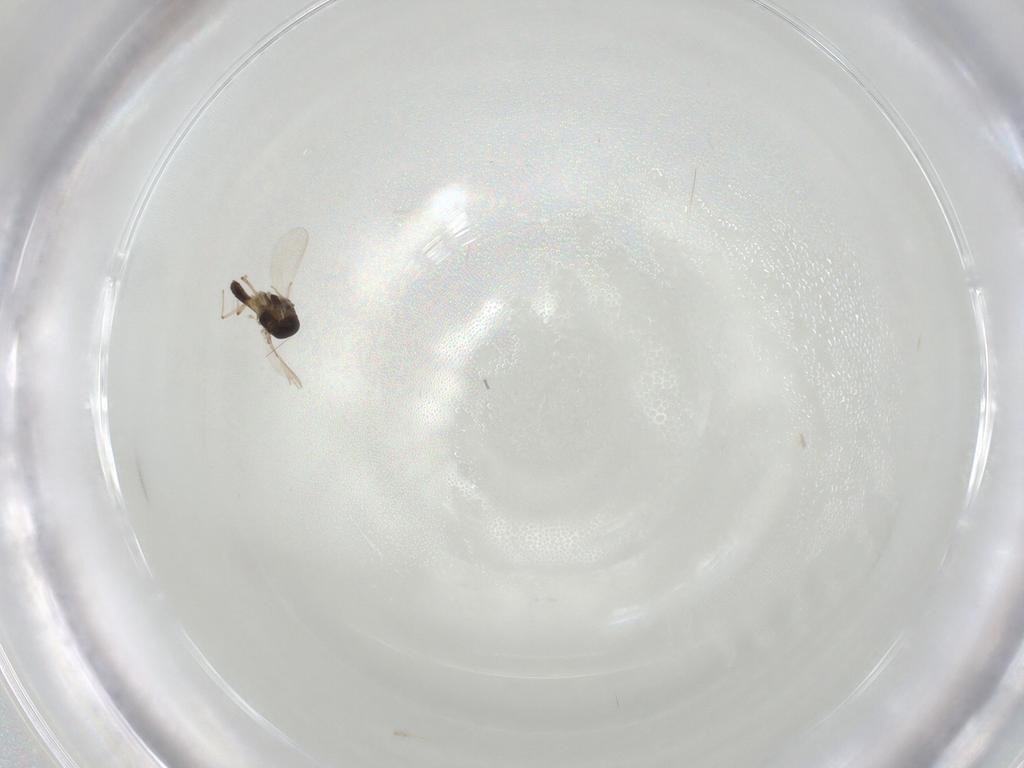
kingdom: Animalia
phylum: Arthropoda
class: Insecta
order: Diptera
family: Chironomidae
